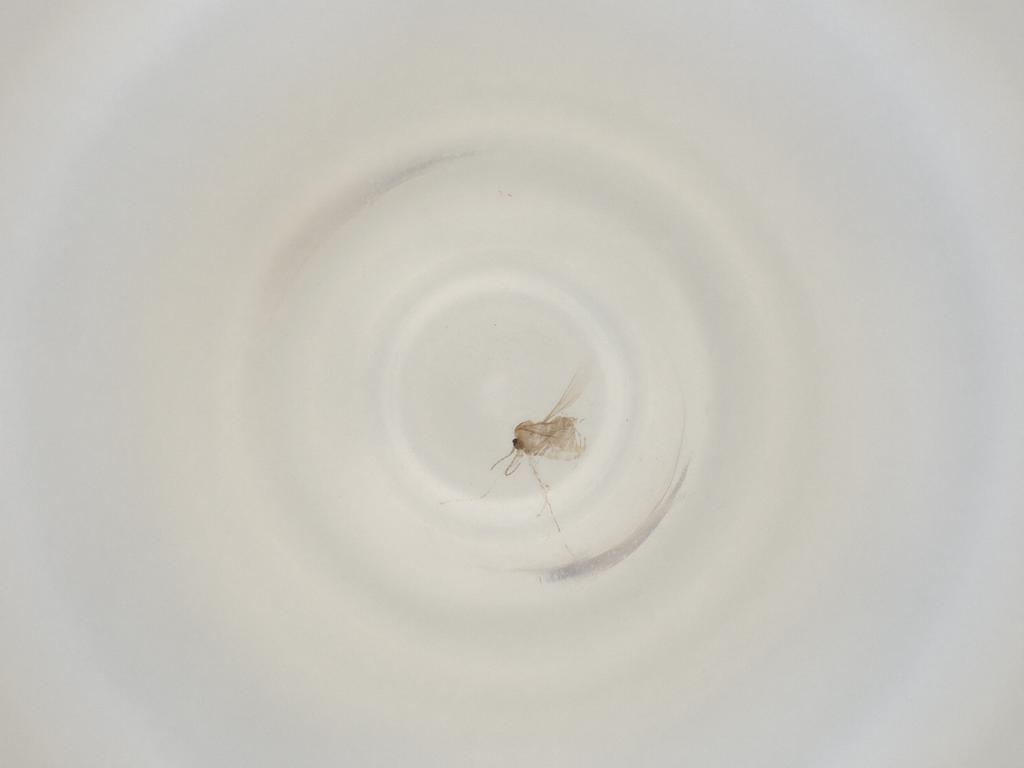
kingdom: Animalia
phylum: Arthropoda
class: Insecta
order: Diptera
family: Cecidomyiidae
